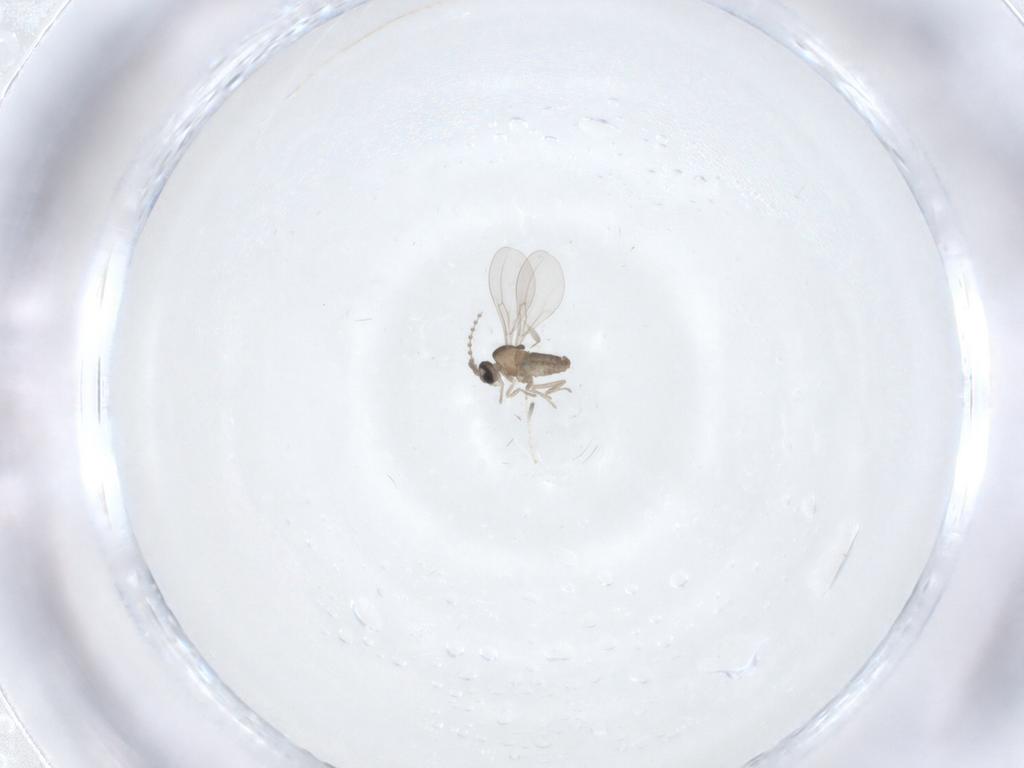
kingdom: Animalia
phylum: Arthropoda
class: Insecta
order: Diptera
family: Cecidomyiidae
